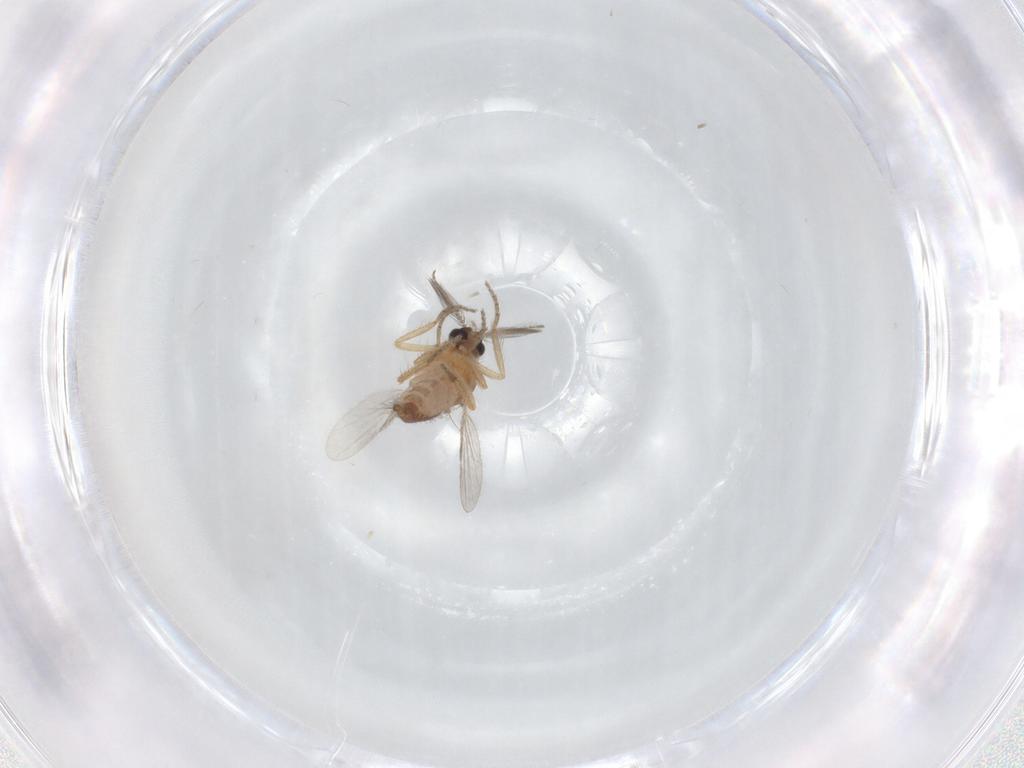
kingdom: Animalia
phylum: Arthropoda
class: Insecta
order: Diptera
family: Ceratopogonidae
